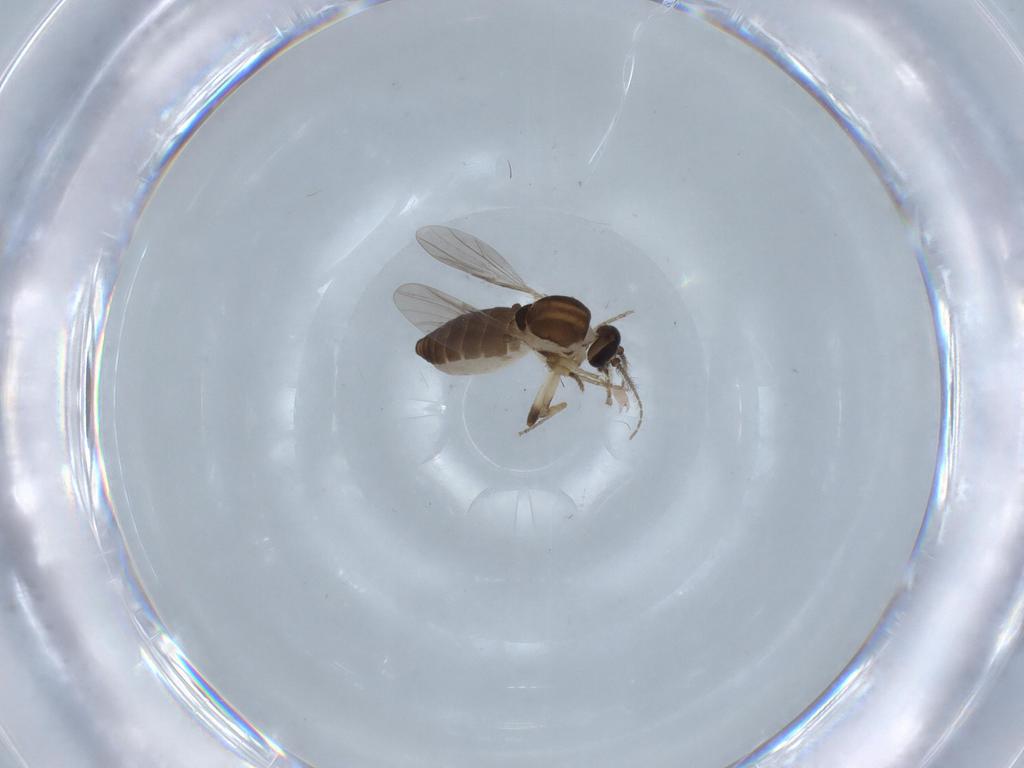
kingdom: Animalia
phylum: Arthropoda
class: Insecta
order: Diptera
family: Ceratopogonidae
